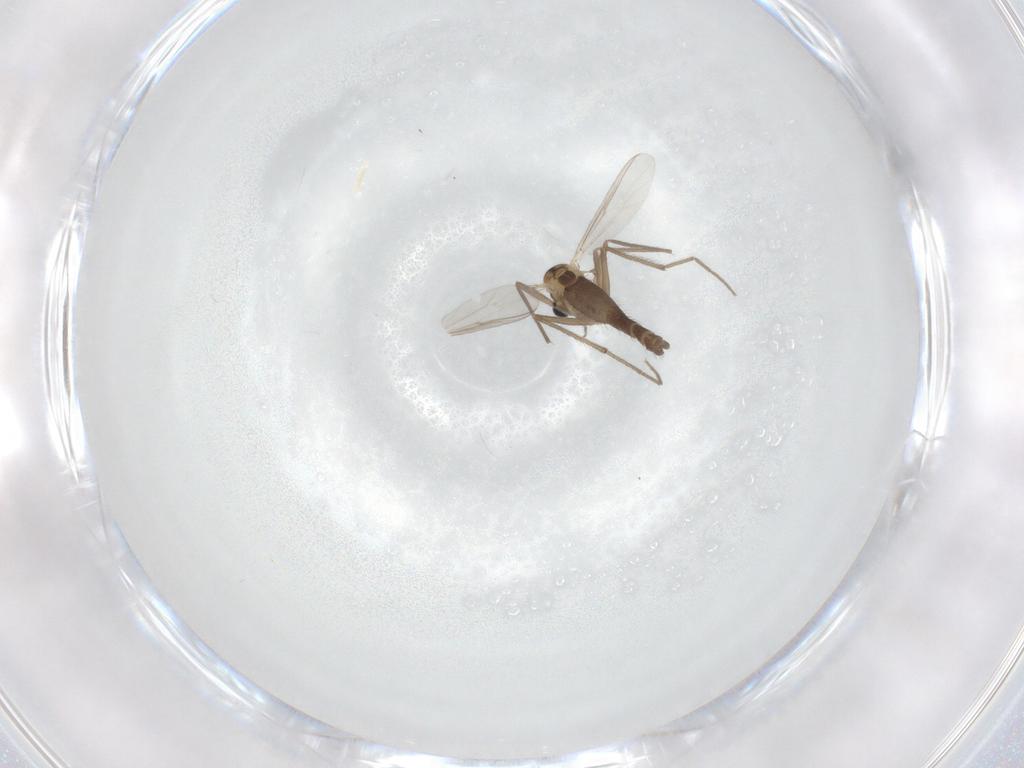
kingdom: Animalia
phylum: Arthropoda
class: Insecta
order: Diptera
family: Chironomidae
